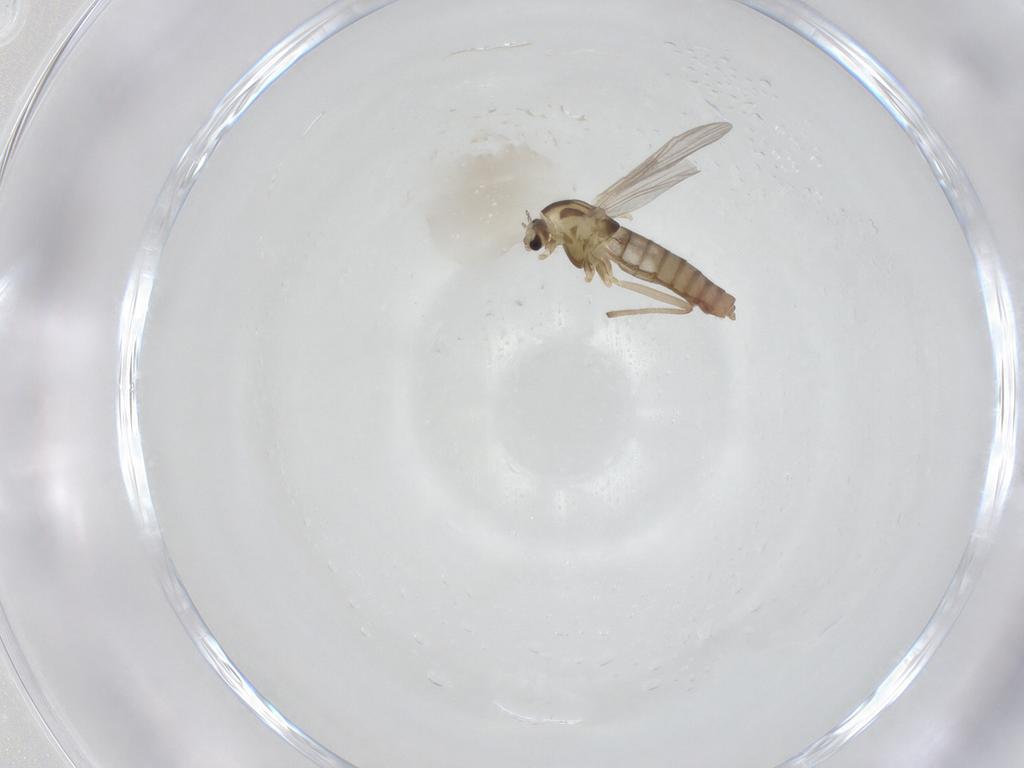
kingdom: Animalia
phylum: Arthropoda
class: Insecta
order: Diptera
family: Chironomidae
